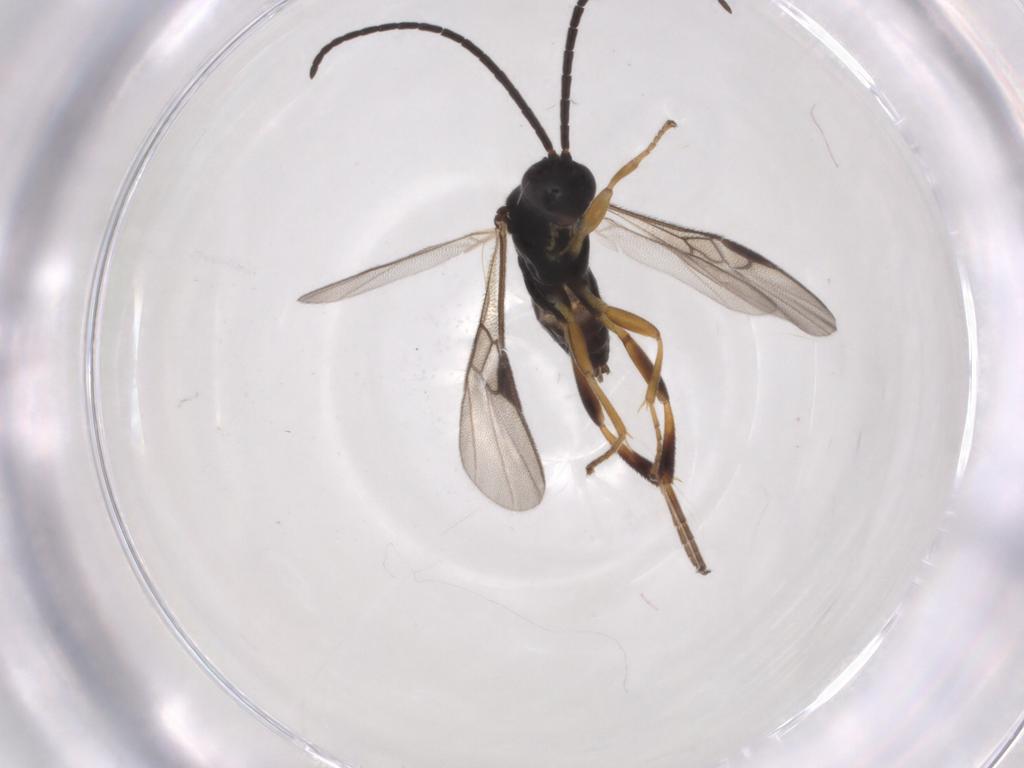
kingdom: Animalia
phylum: Arthropoda
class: Insecta
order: Hymenoptera
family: Braconidae
